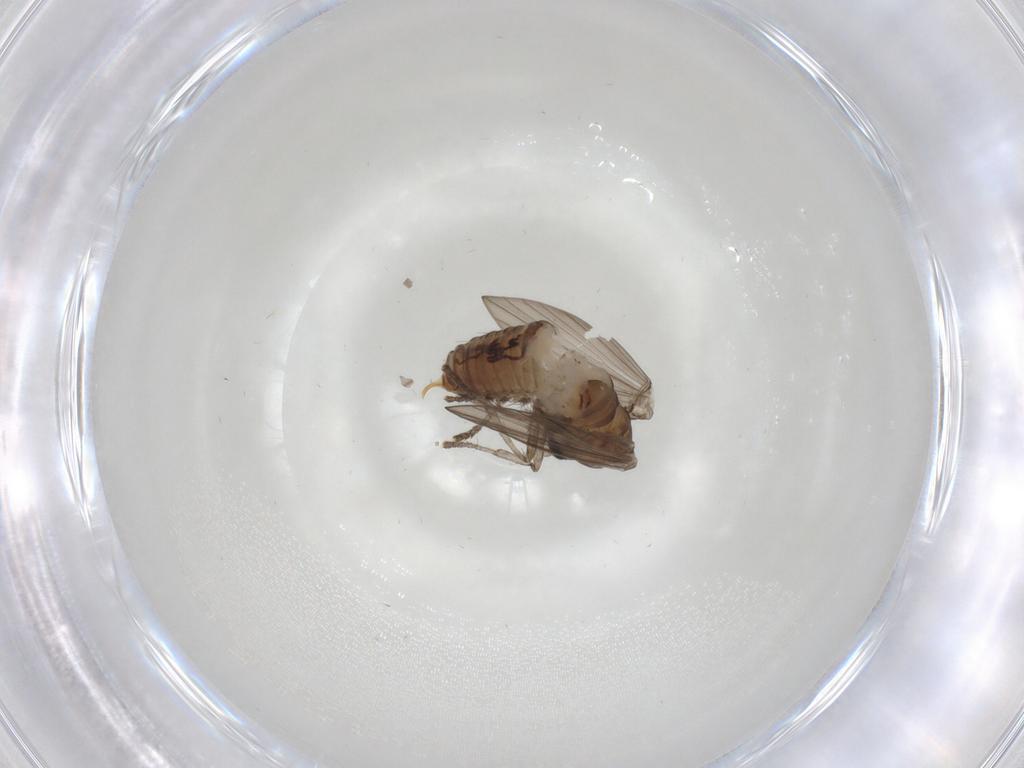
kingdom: Animalia
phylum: Arthropoda
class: Insecta
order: Diptera
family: Psychodidae
